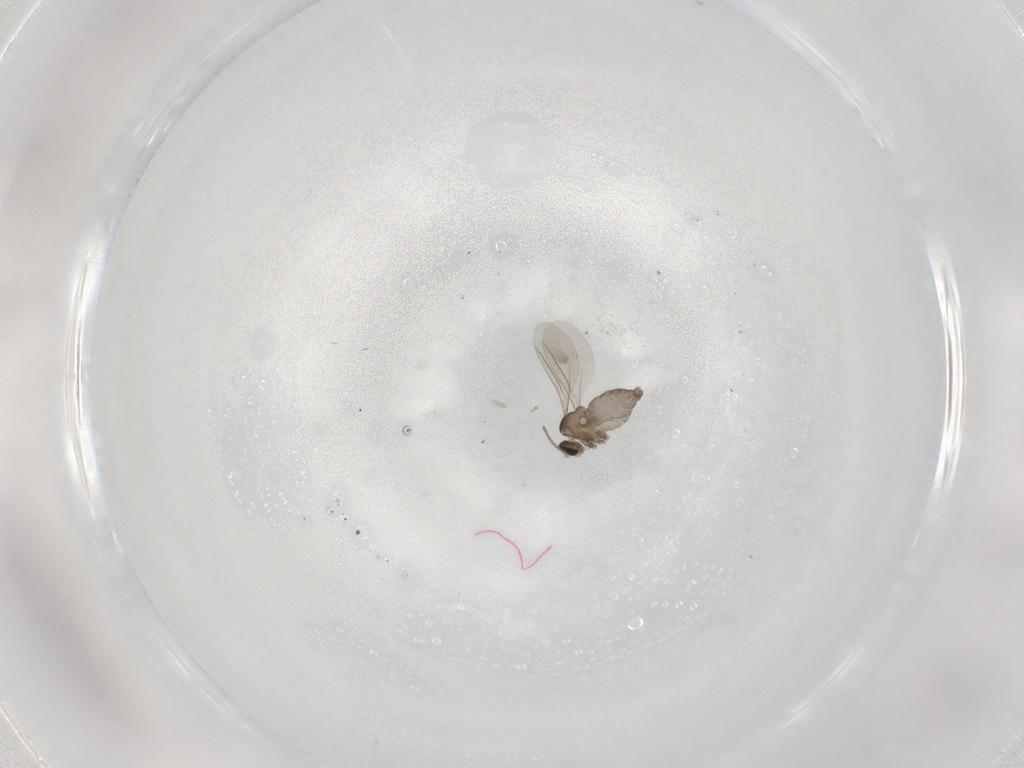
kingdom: Animalia
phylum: Arthropoda
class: Insecta
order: Diptera
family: Cecidomyiidae
